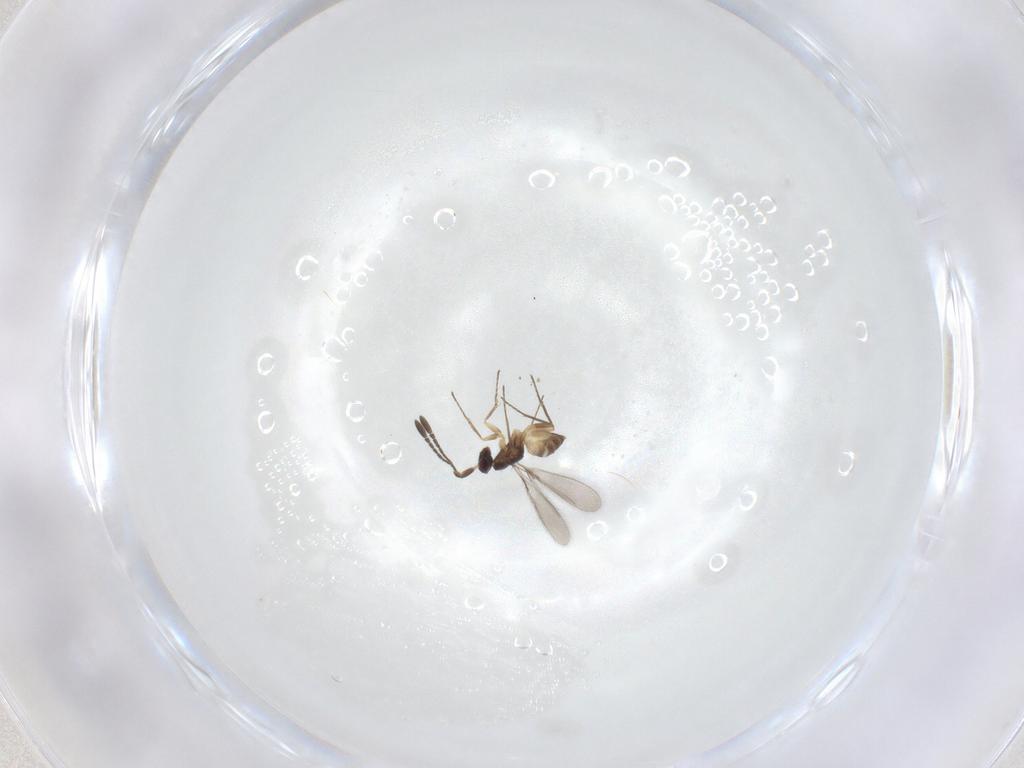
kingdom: Animalia
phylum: Arthropoda
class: Insecta
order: Hymenoptera
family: Mymaridae
